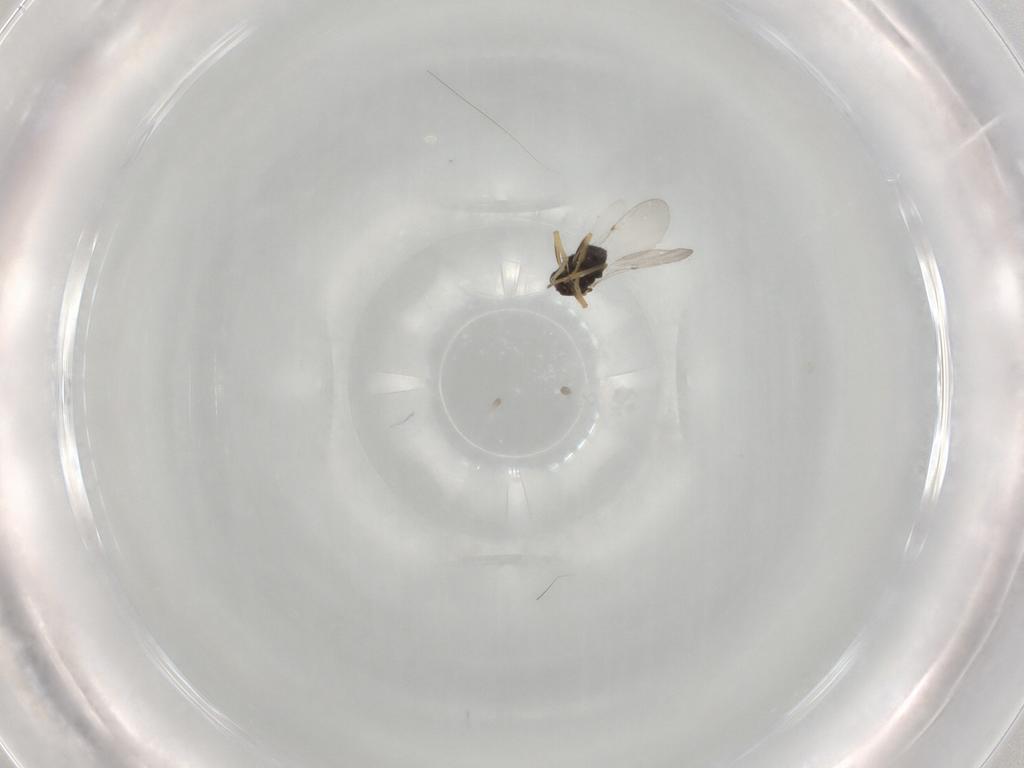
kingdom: Animalia
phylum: Arthropoda
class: Insecta
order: Hymenoptera
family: Braconidae
